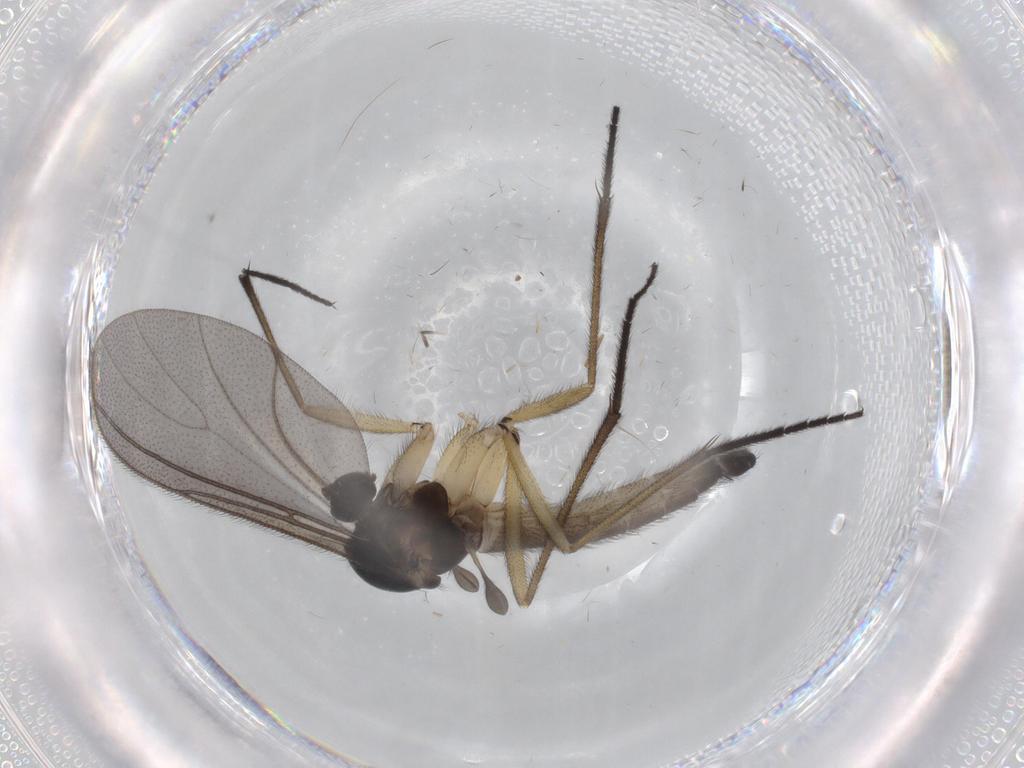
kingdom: Animalia
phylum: Arthropoda
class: Insecta
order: Diptera
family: Sciaridae
